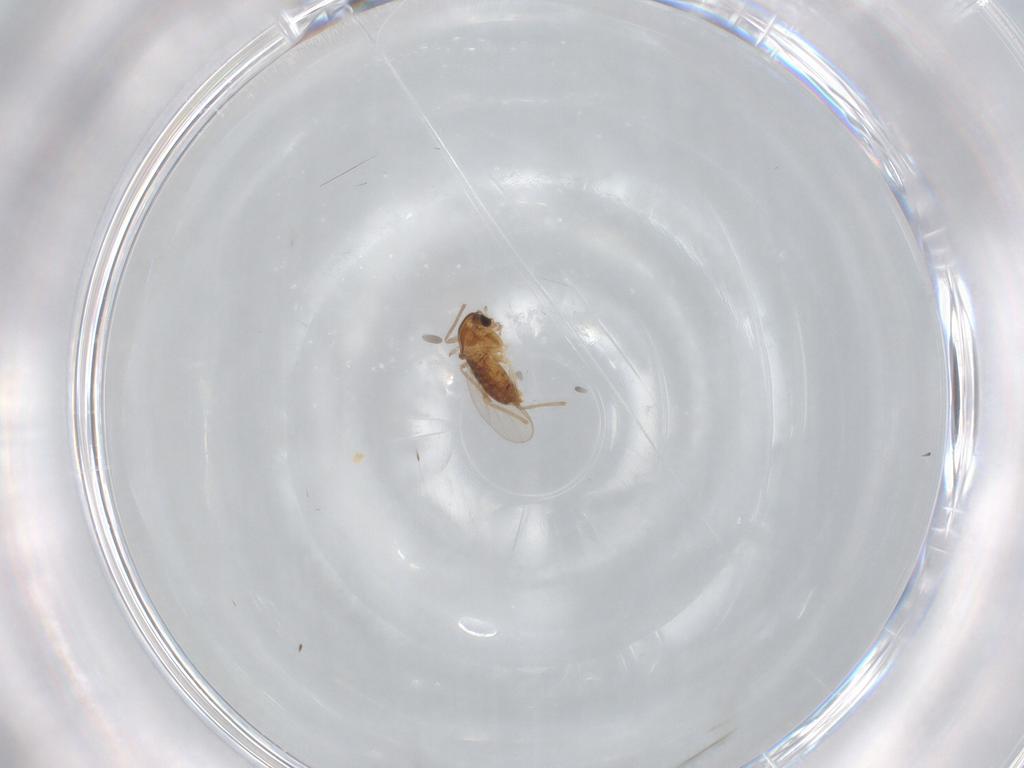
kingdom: Animalia
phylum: Arthropoda
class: Insecta
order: Diptera
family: Chironomidae
